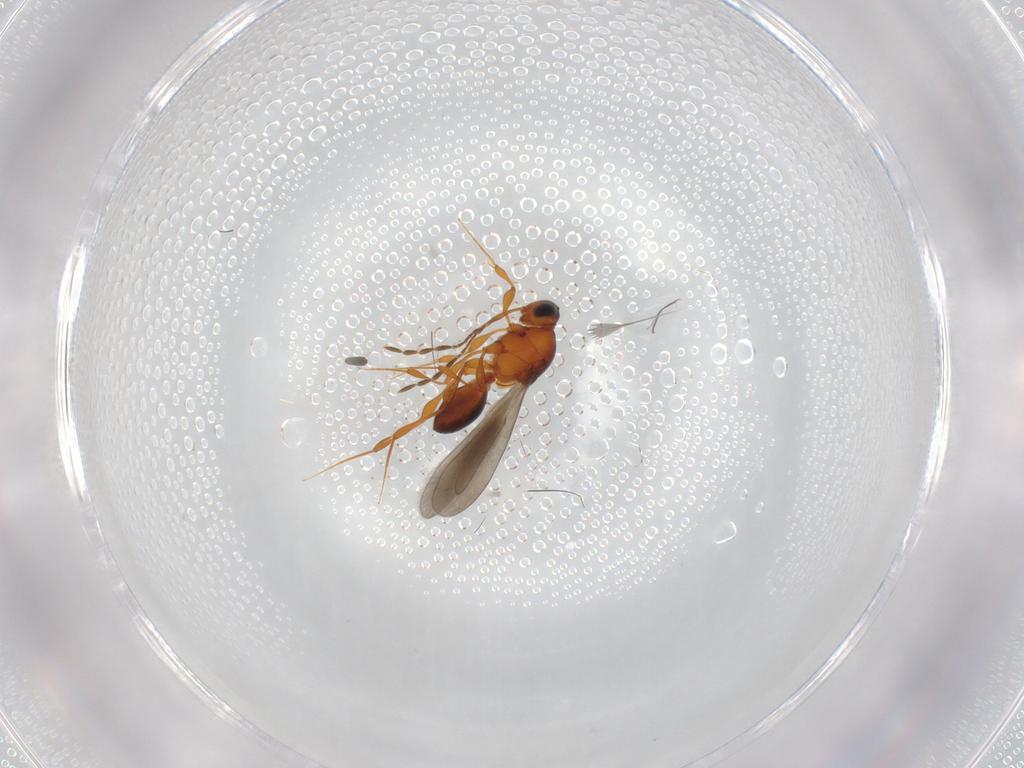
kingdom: Animalia
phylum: Arthropoda
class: Insecta
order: Hymenoptera
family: Platygastridae
